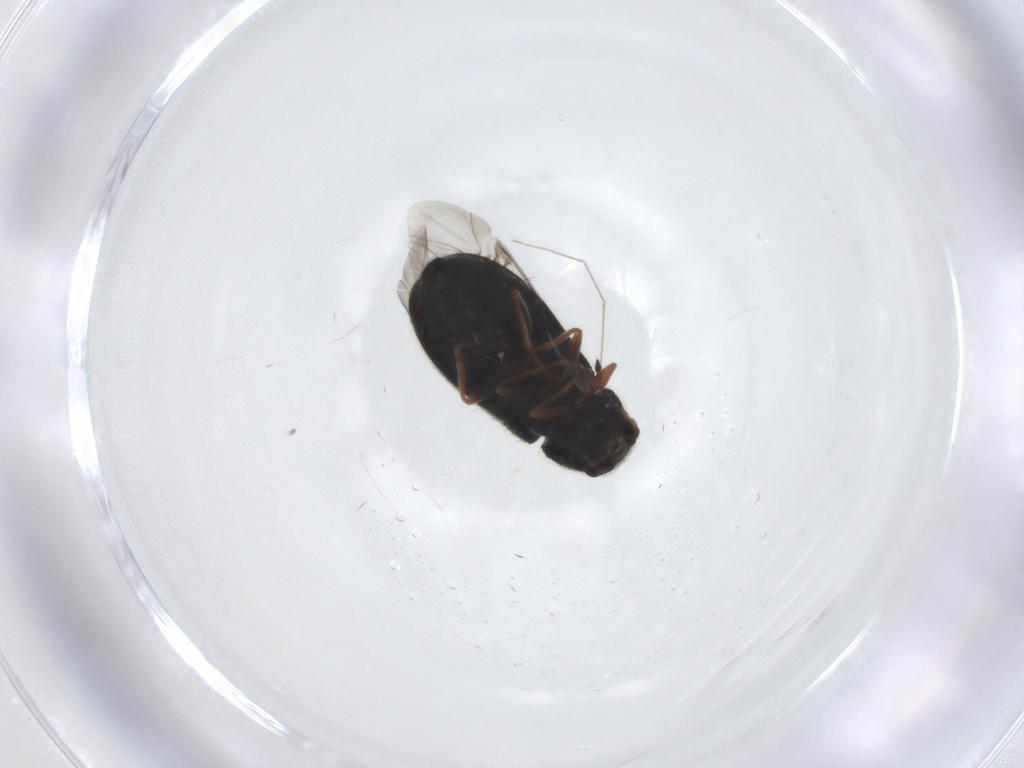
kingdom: Animalia
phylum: Arthropoda
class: Insecta
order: Coleoptera
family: Melyridae
